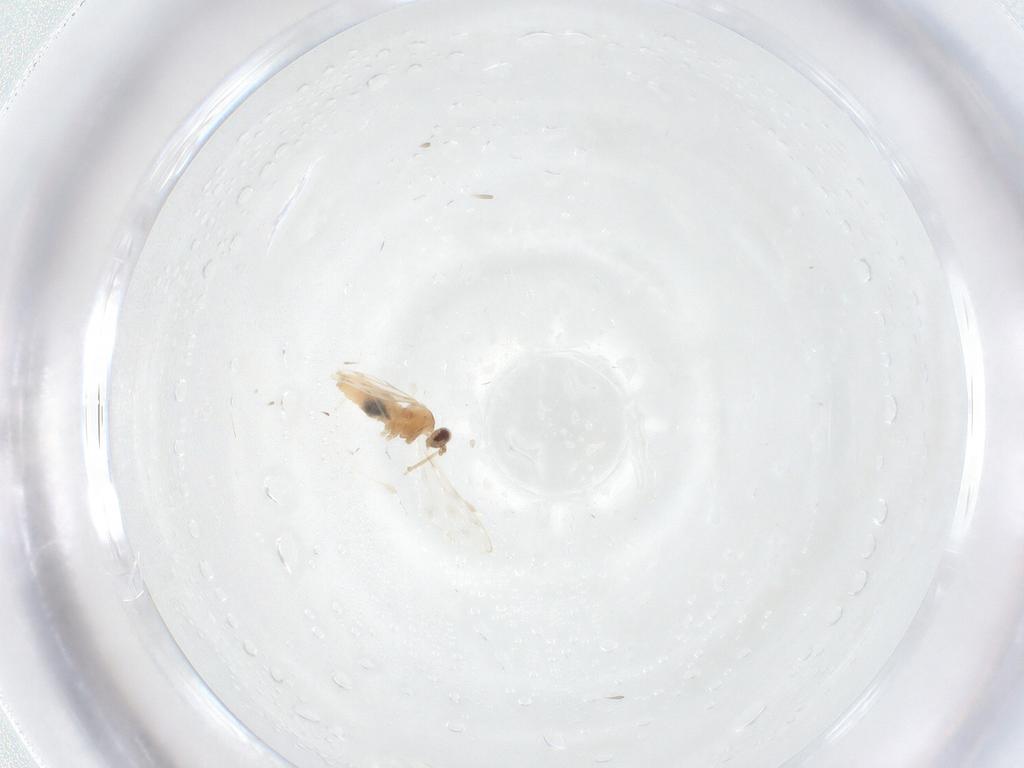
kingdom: Animalia
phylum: Arthropoda
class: Insecta
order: Diptera
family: Cecidomyiidae
